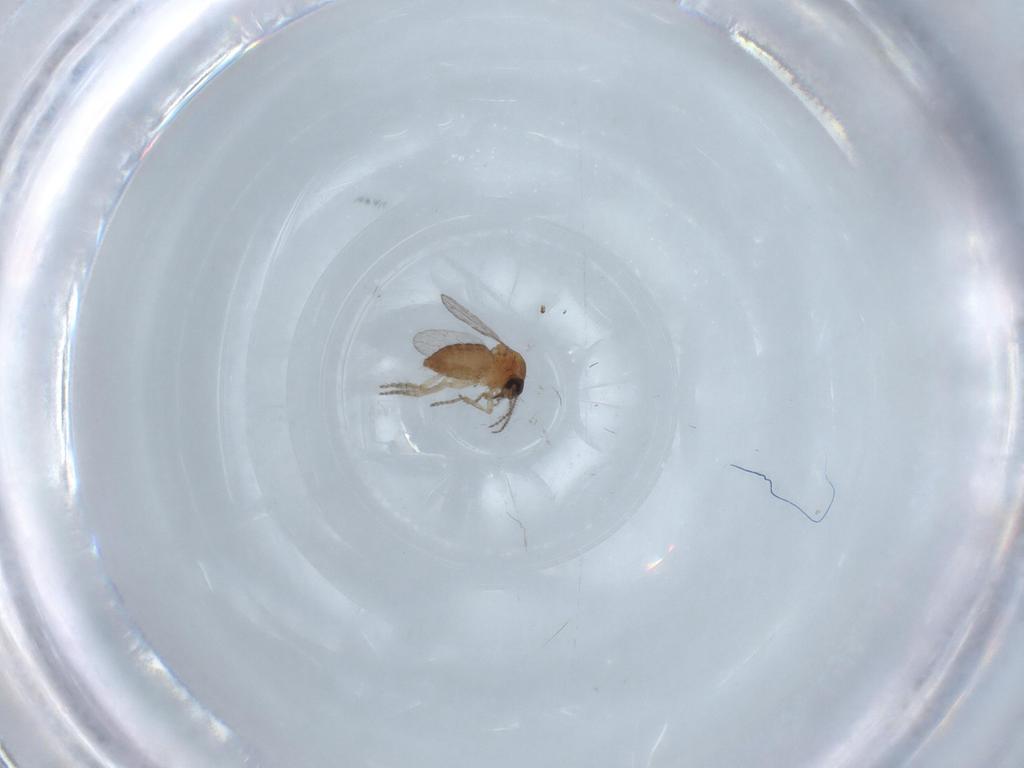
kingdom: Animalia
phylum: Arthropoda
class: Insecta
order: Diptera
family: Ceratopogonidae
